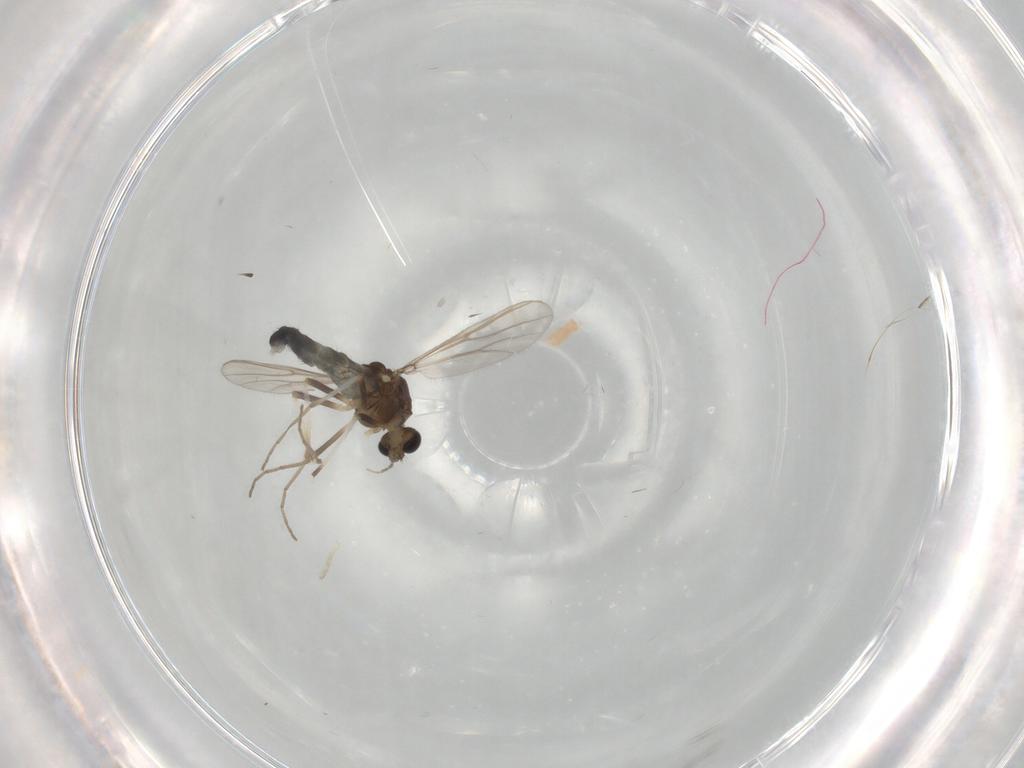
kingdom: Animalia
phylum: Arthropoda
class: Insecta
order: Diptera
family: Chironomidae
